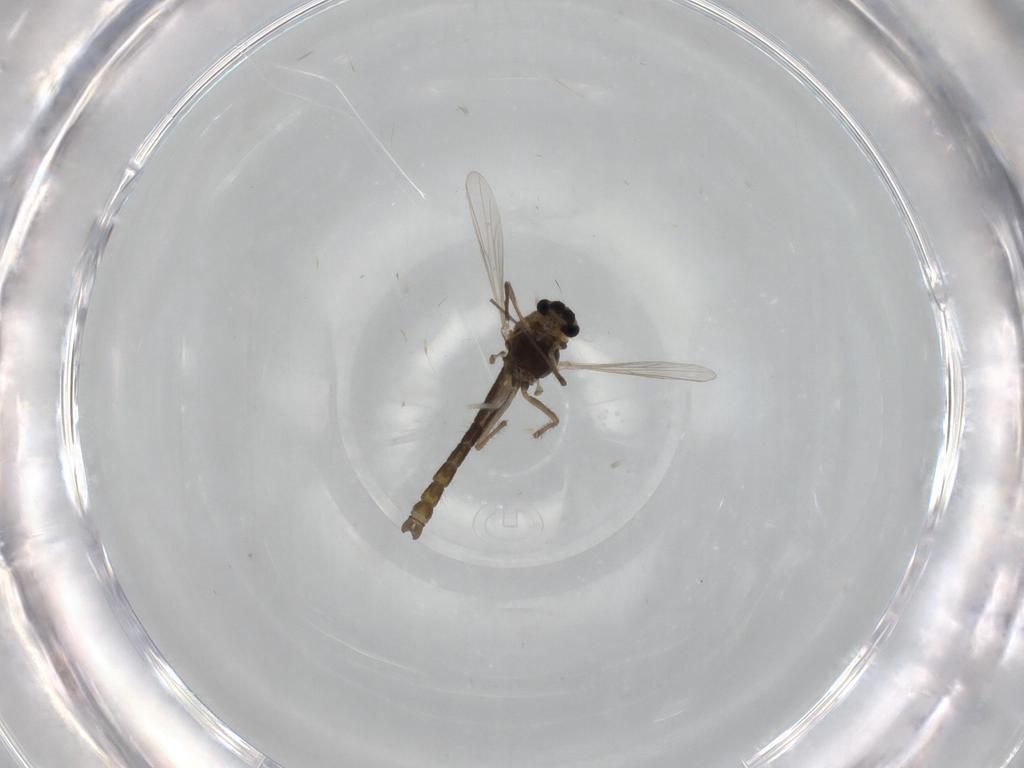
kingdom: Animalia
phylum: Arthropoda
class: Insecta
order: Diptera
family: Chironomidae
